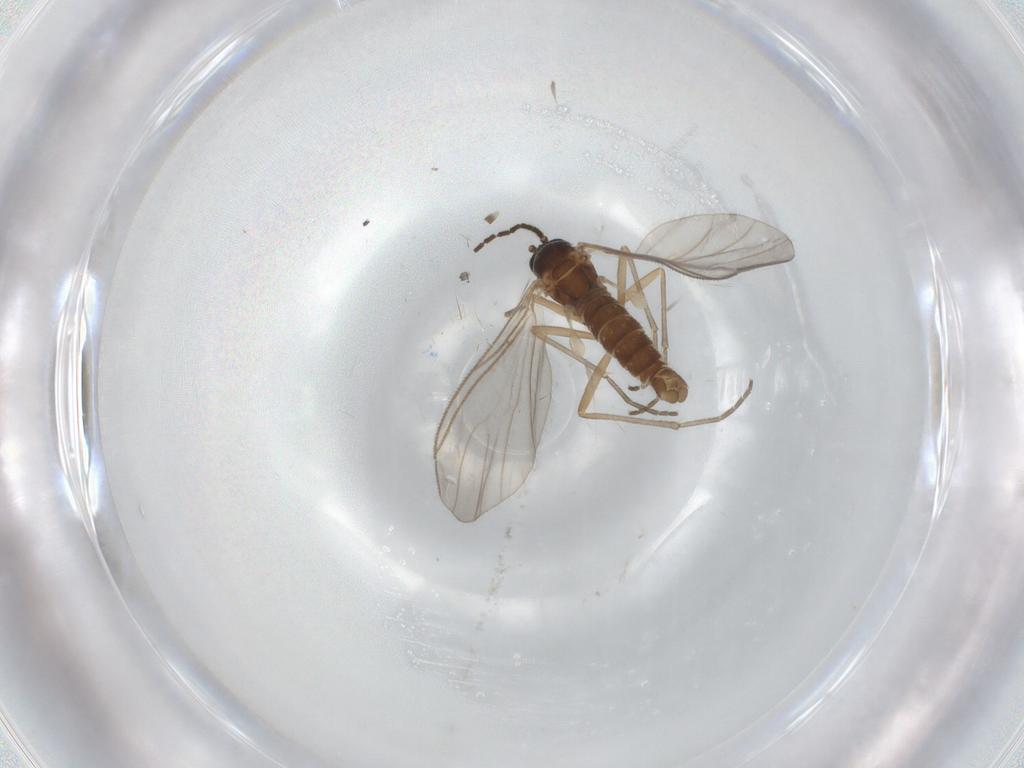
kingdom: Animalia
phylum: Arthropoda
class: Insecta
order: Diptera
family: Sciaridae
